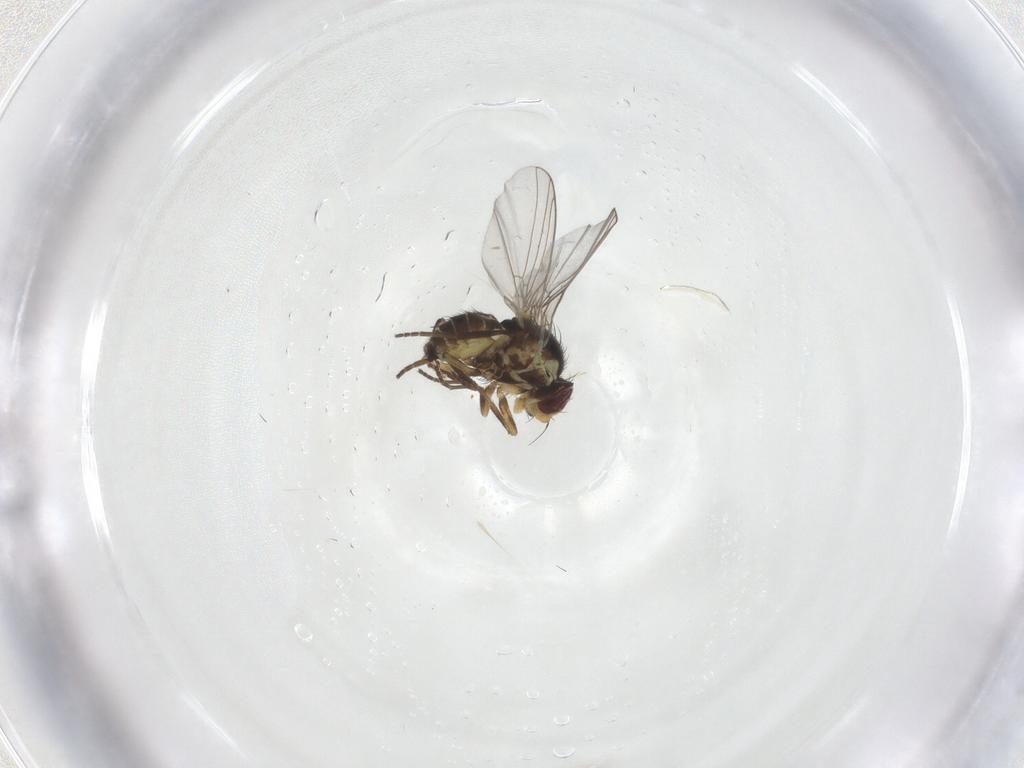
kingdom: Animalia
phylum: Arthropoda
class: Insecta
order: Diptera
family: Agromyzidae
